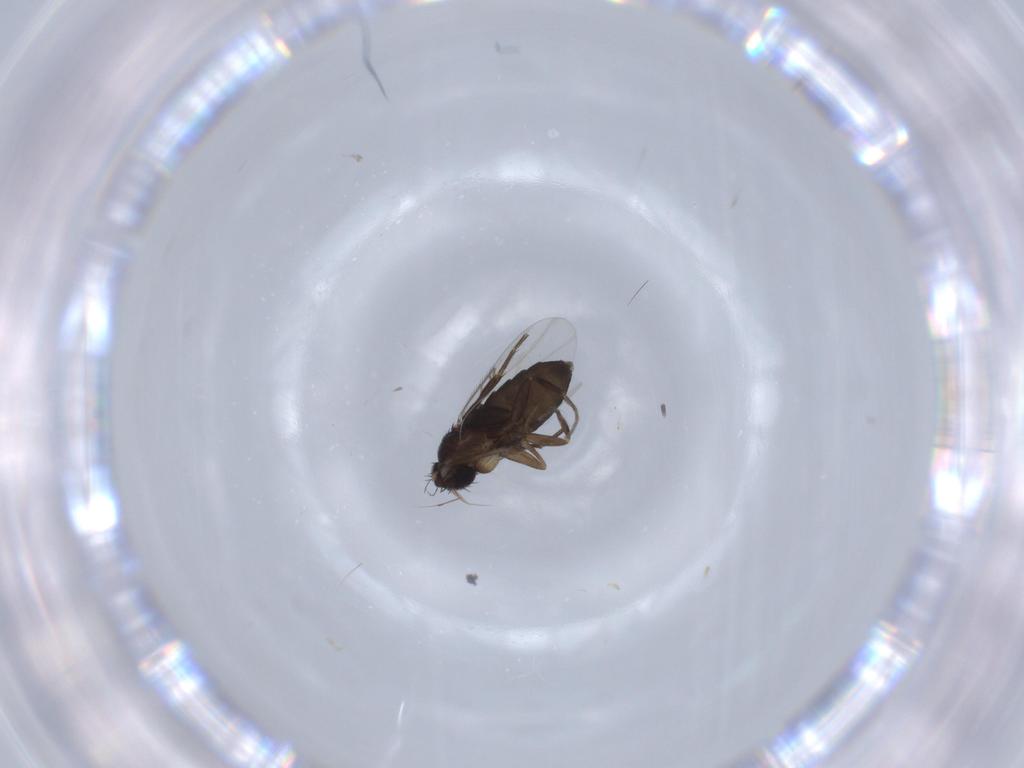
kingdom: Animalia
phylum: Arthropoda
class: Insecta
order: Diptera
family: Phoridae
